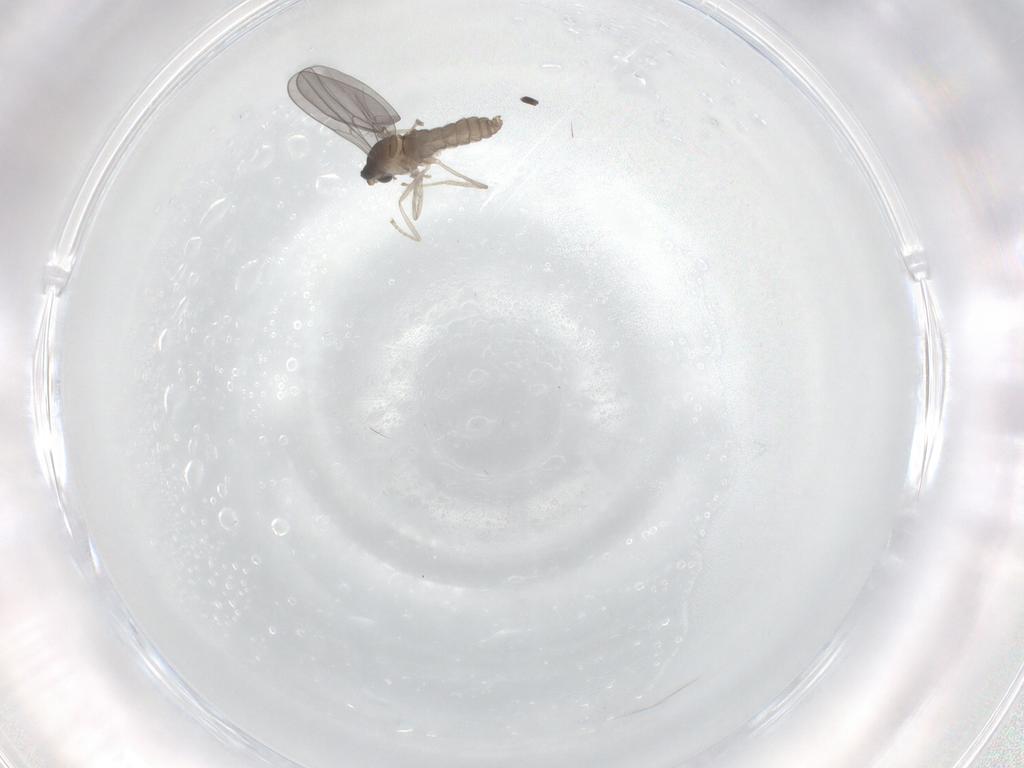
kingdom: Animalia
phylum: Arthropoda
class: Insecta
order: Diptera
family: Cecidomyiidae
